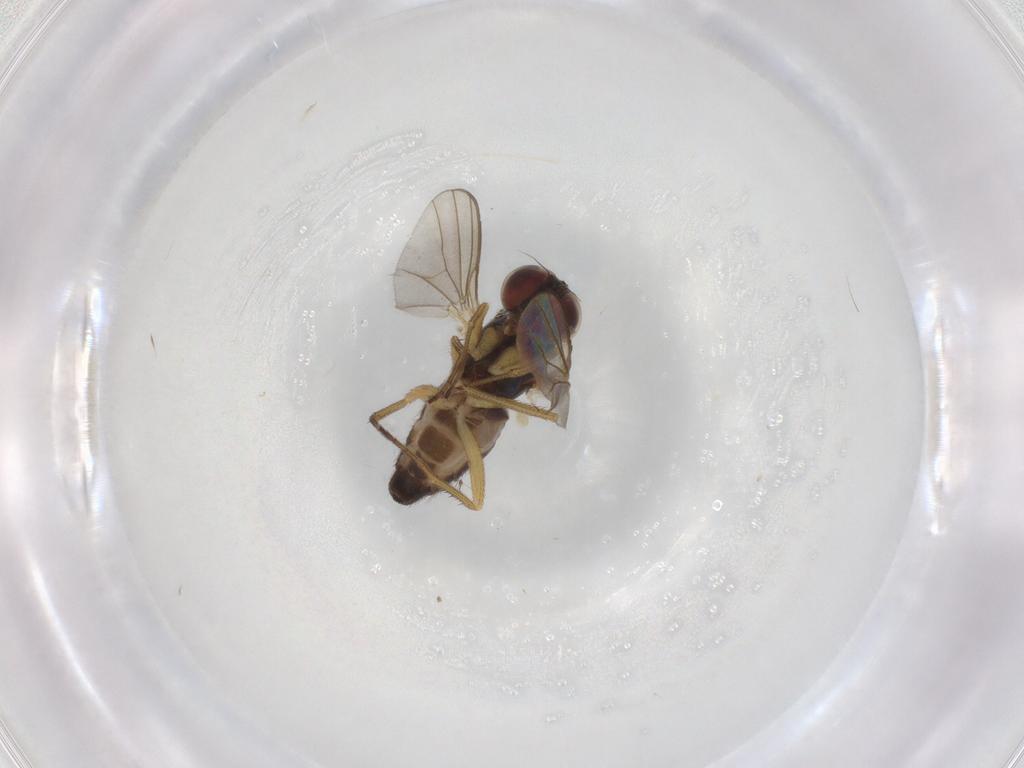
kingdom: Animalia
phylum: Arthropoda
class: Insecta
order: Diptera
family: Dolichopodidae
